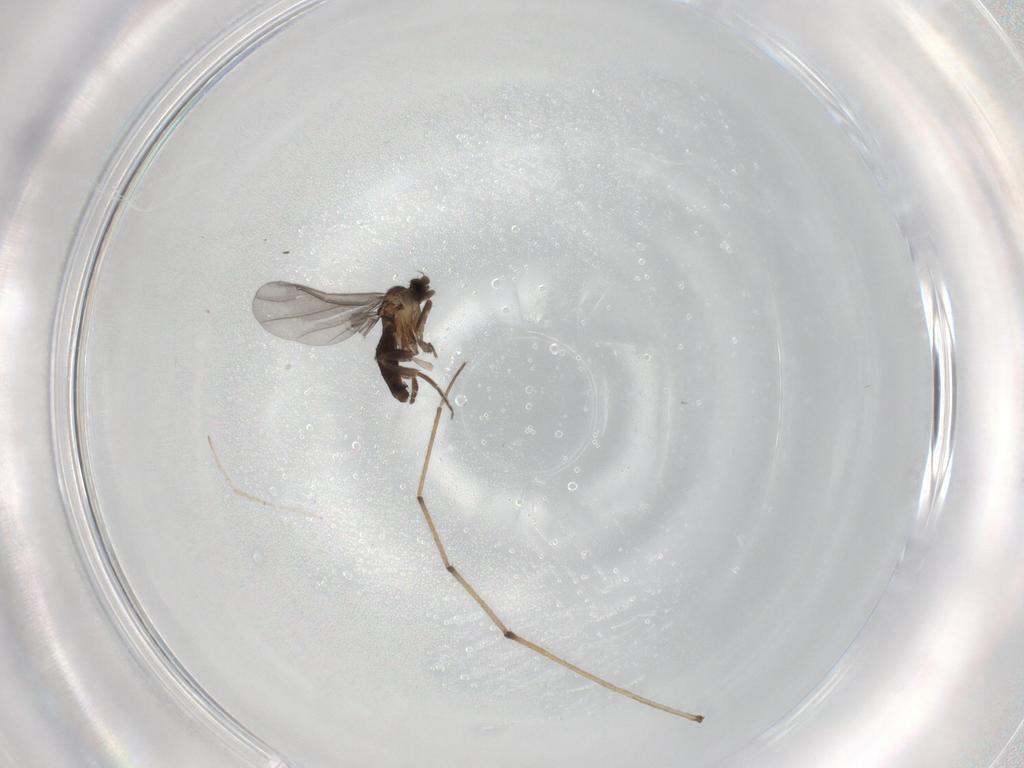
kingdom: Animalia
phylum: Arthropoda
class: Insecta
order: Diptera
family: Chironomidae
